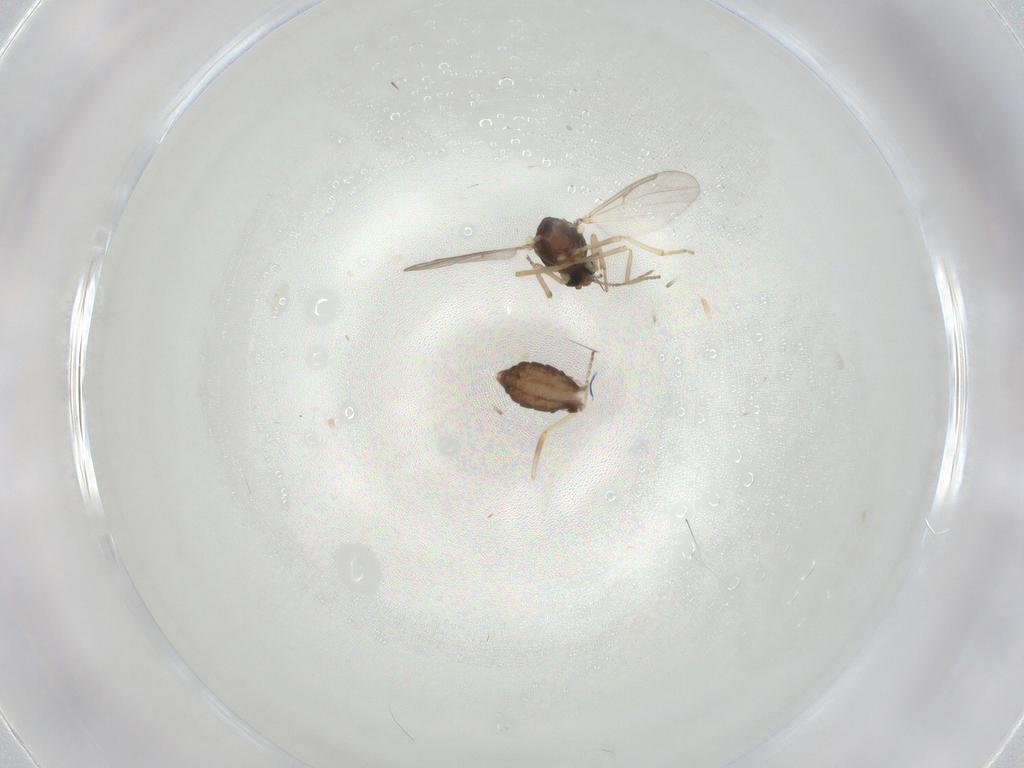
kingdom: Animalia
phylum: Arthropoda
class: Insecta
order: Diptera
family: Ceratopogonidae
